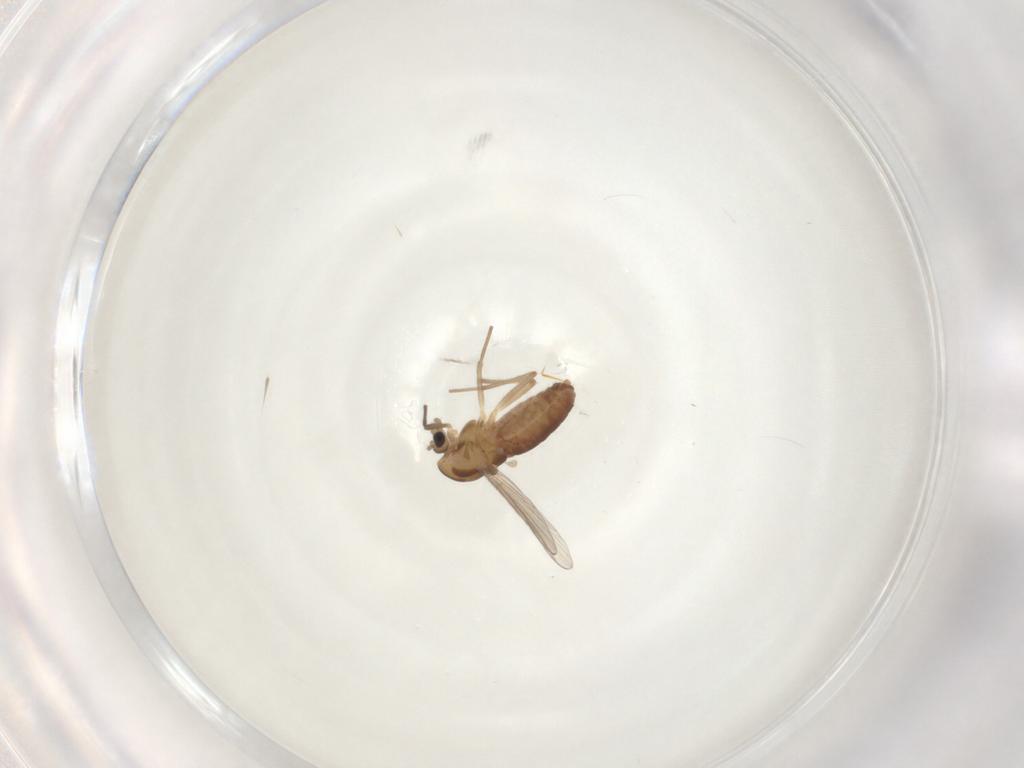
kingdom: Animalia
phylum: Arthropoda
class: Insecta
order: Diptera
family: Chironomidae
